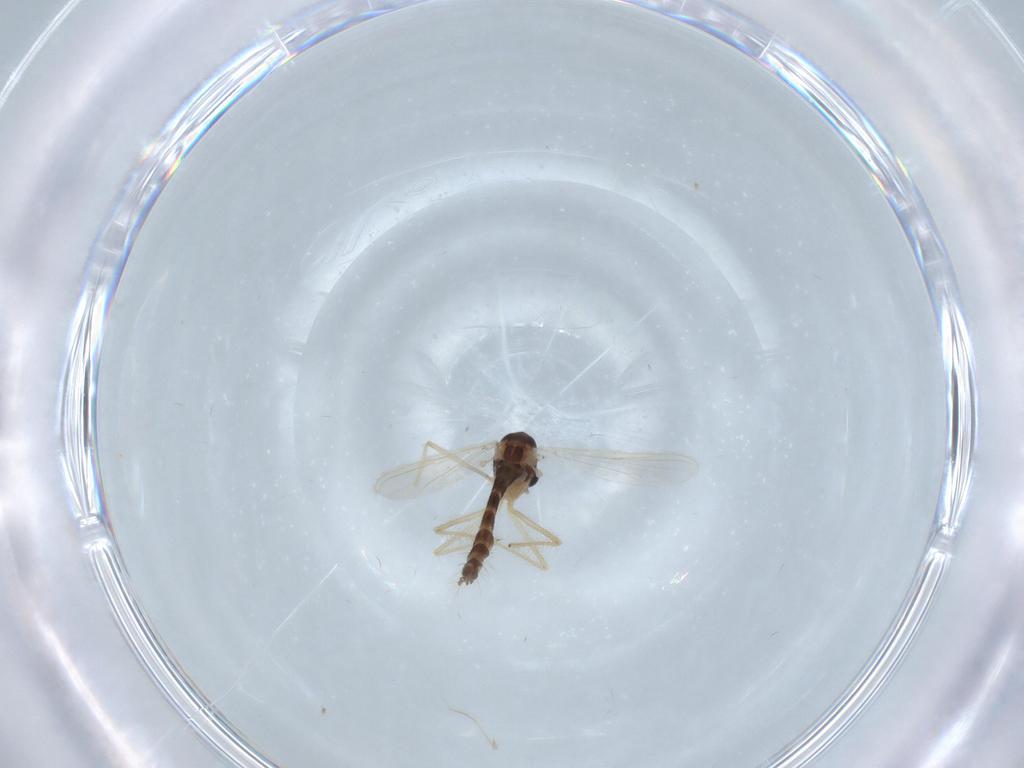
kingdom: Animalia
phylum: Arthropoda
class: Insecta
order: Diptera
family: Chironomidae
